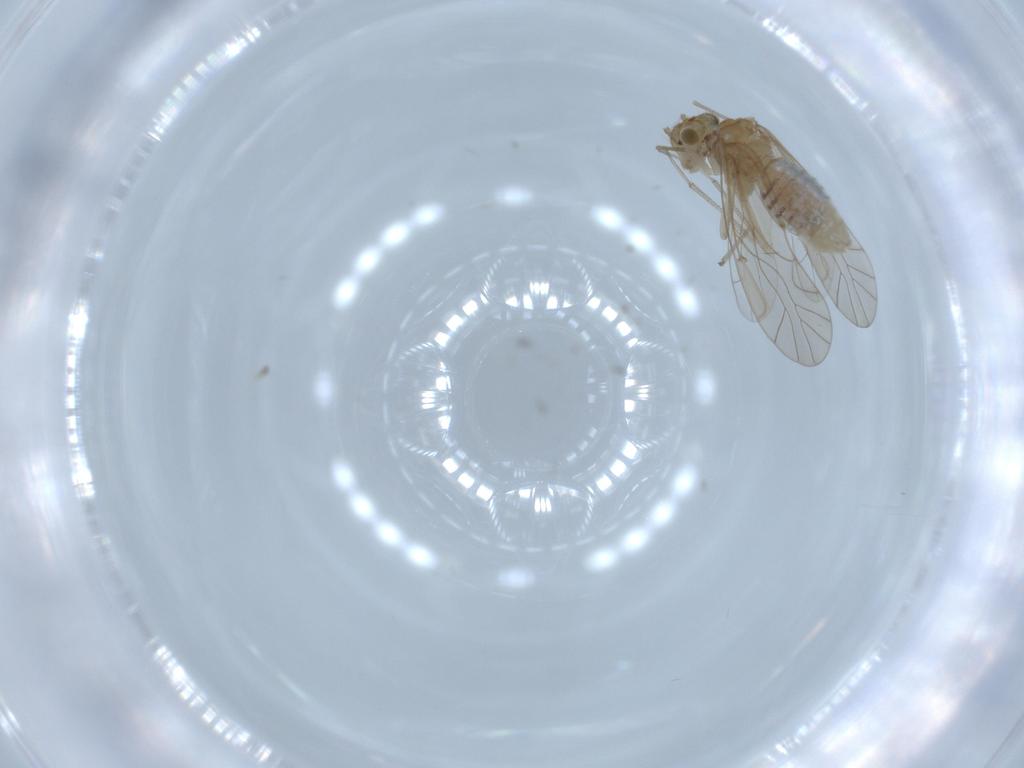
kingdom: Animalia
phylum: Arthropoda
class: Insecta
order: Psocodea
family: Lachesillidae
